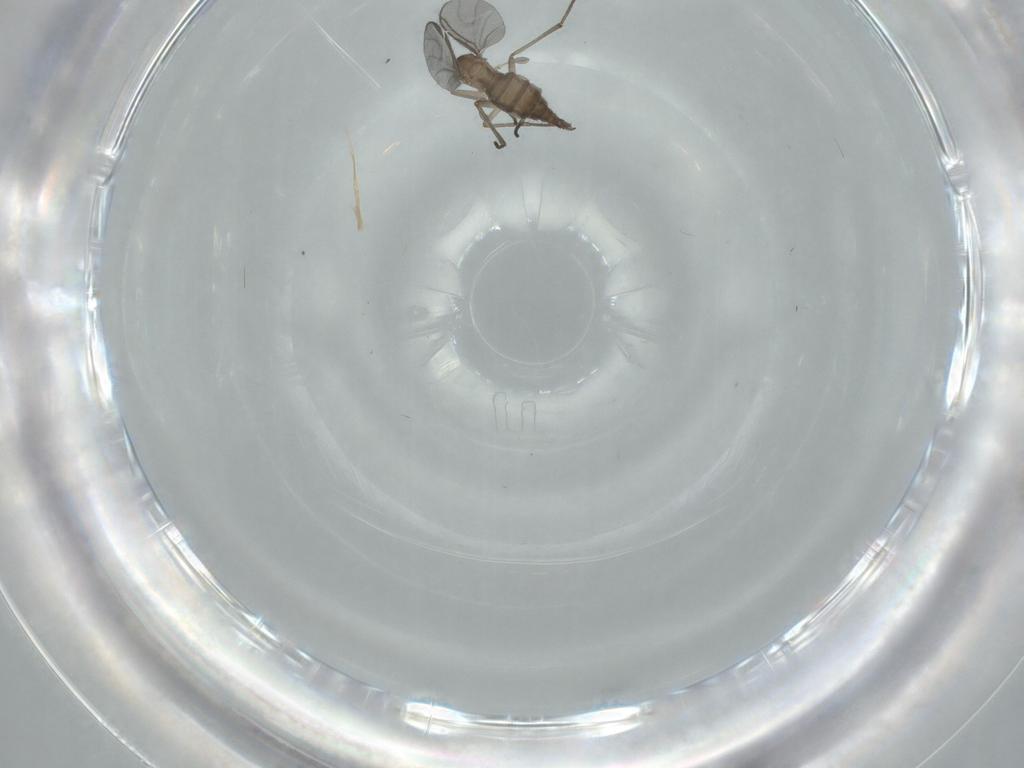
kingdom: Animalia
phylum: Arthropoda
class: Insecta
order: Diptera
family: Sciaridae
